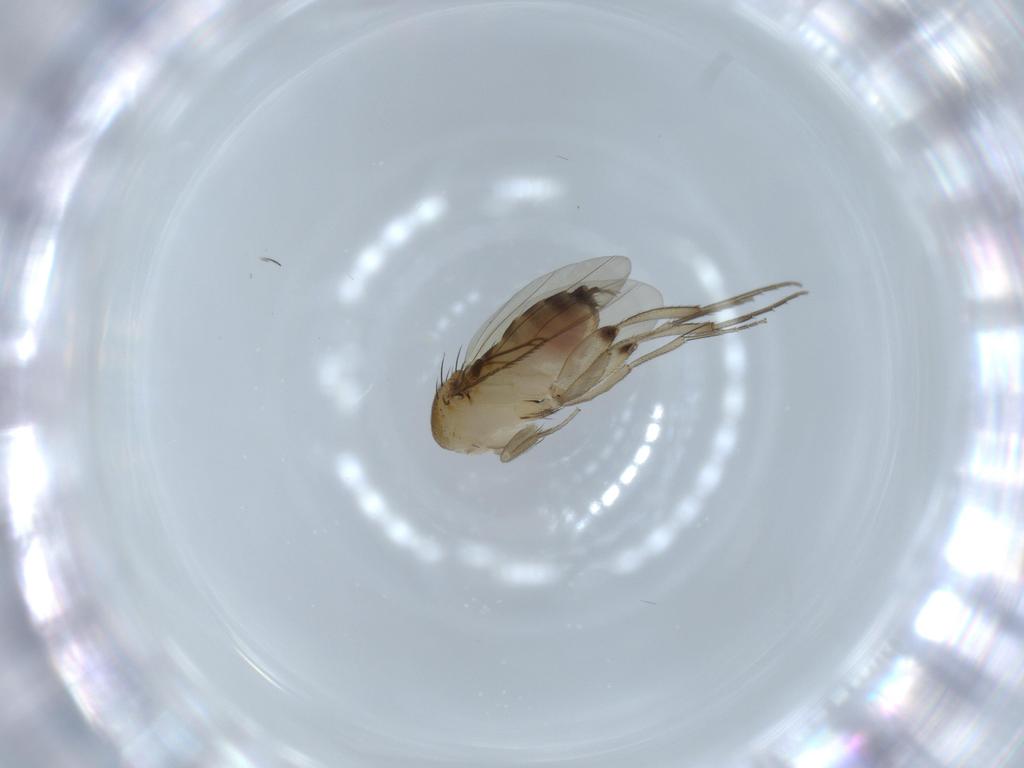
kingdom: Animalia
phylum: Arthropoda
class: Insecta
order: Diptera
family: Phoridae
